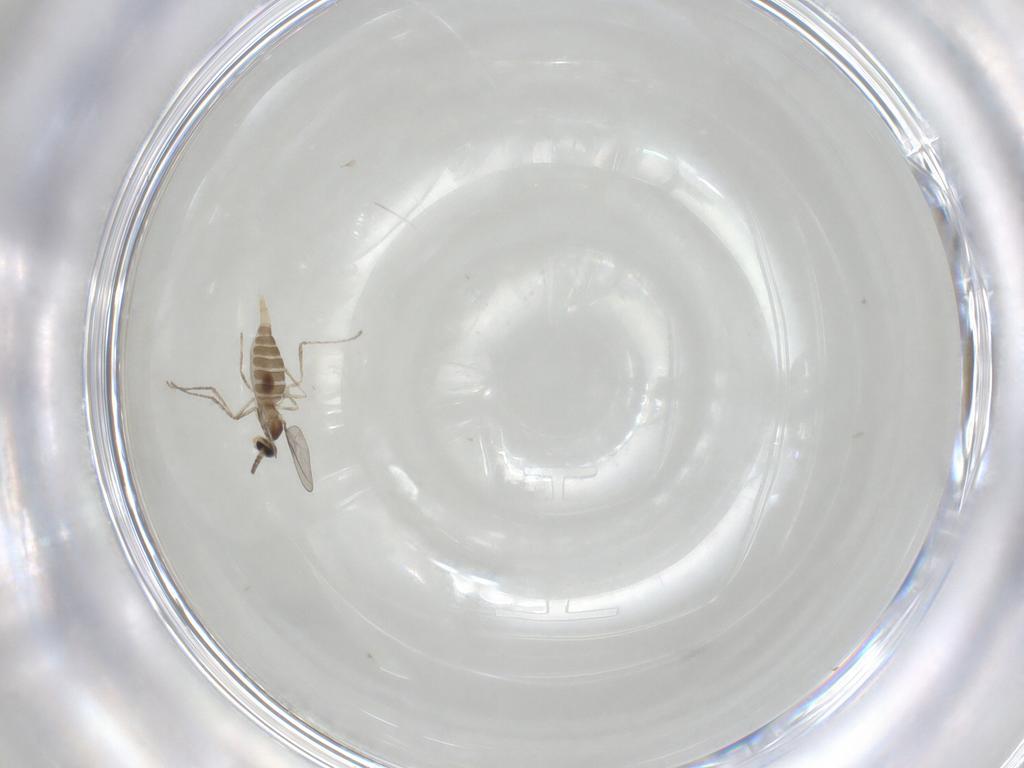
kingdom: Animalia
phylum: Arthropoda
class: Insecta
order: Diptera
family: Cecidomyiidae
